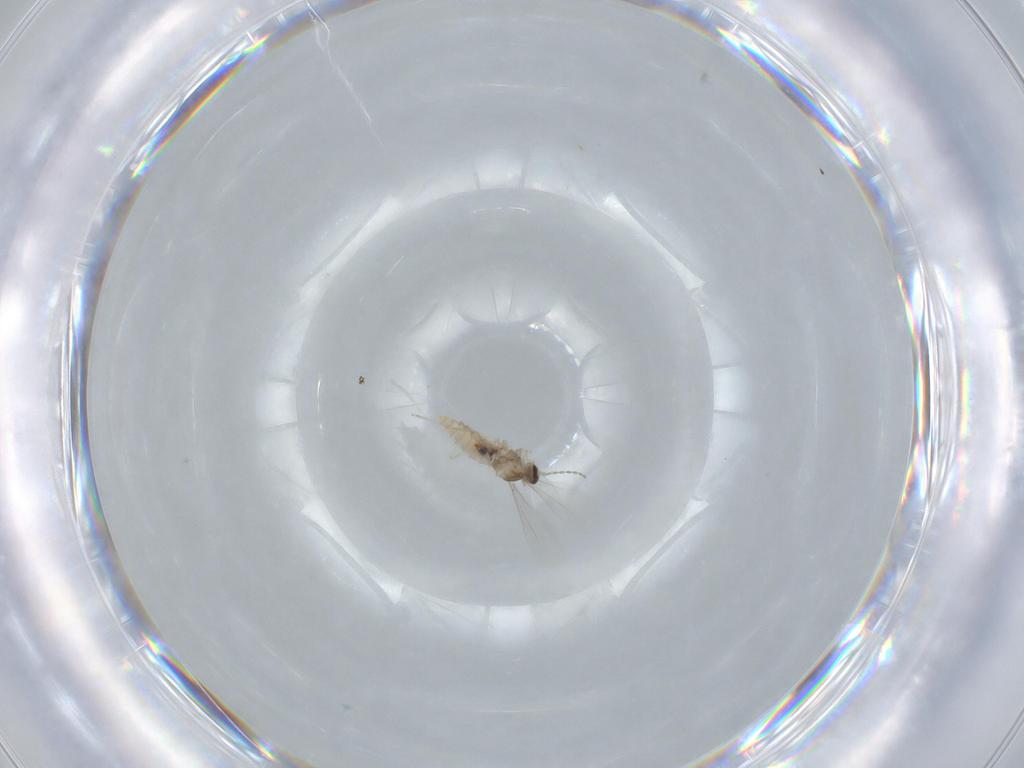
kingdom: Animalia
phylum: Arthropoda
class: Insecta
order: Diptera
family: Cecidomyiidae
